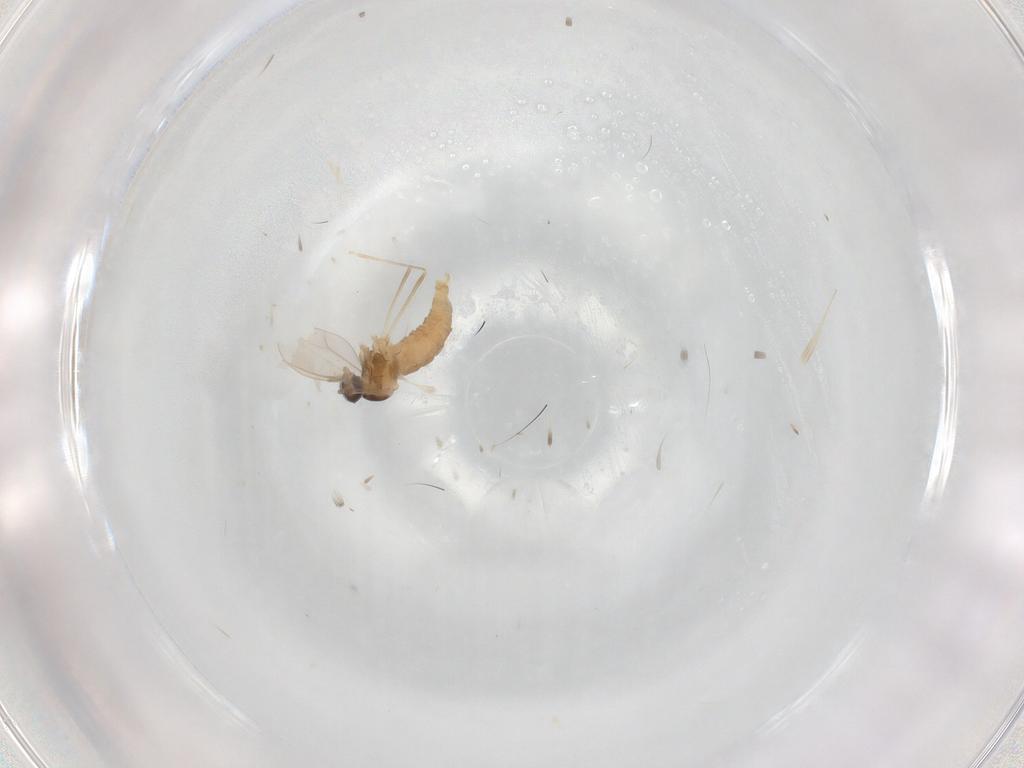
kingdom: Animalia
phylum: Arthropoda
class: Insecta
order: Diptera
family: Cecidomyiidae
